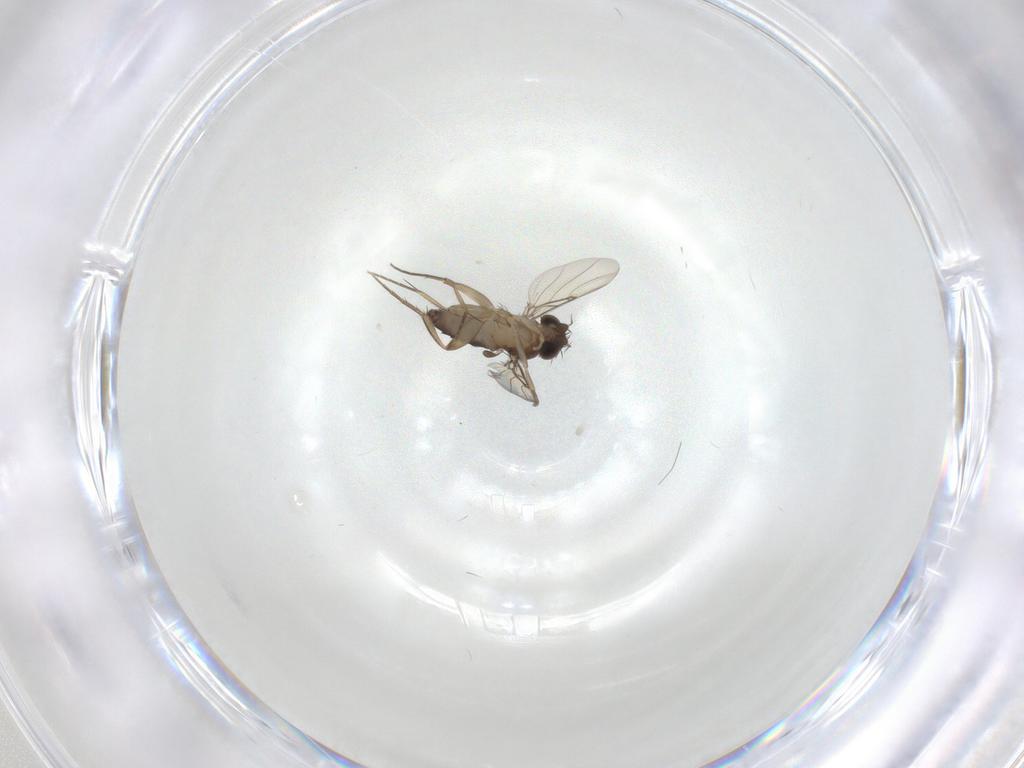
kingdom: Animalia
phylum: Arthropoda
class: Insecta
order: Diptera
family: Phoridae
